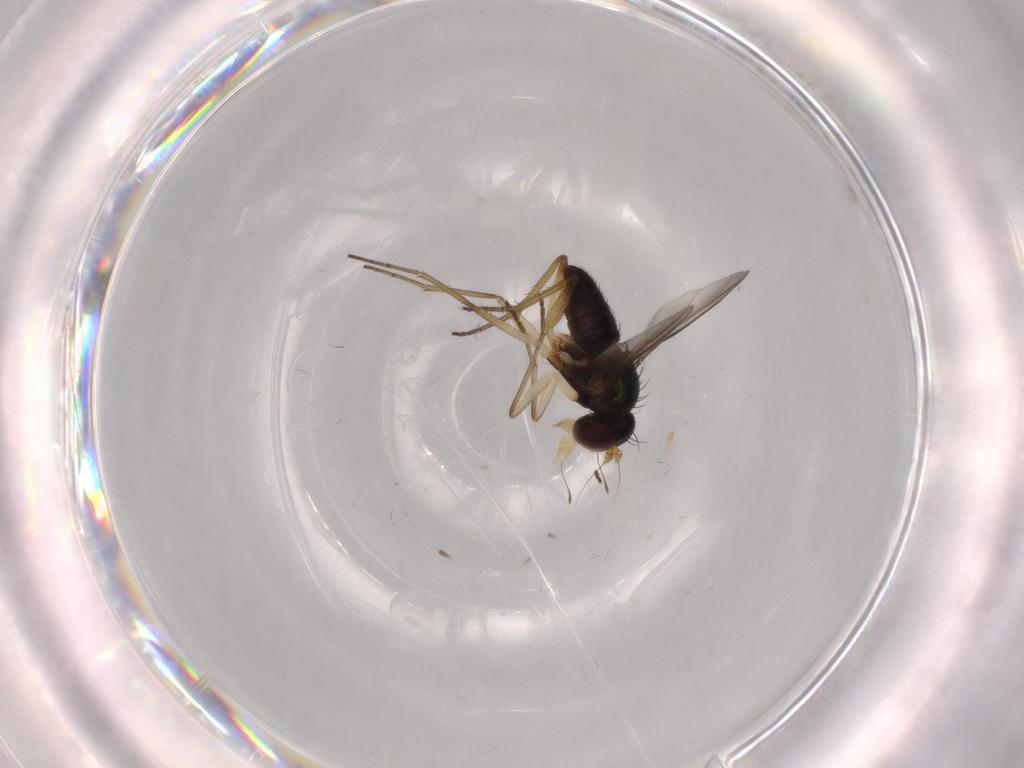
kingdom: Animalia
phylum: Arthropoda
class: Insecta
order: Diptera
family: Dolichopodidae
